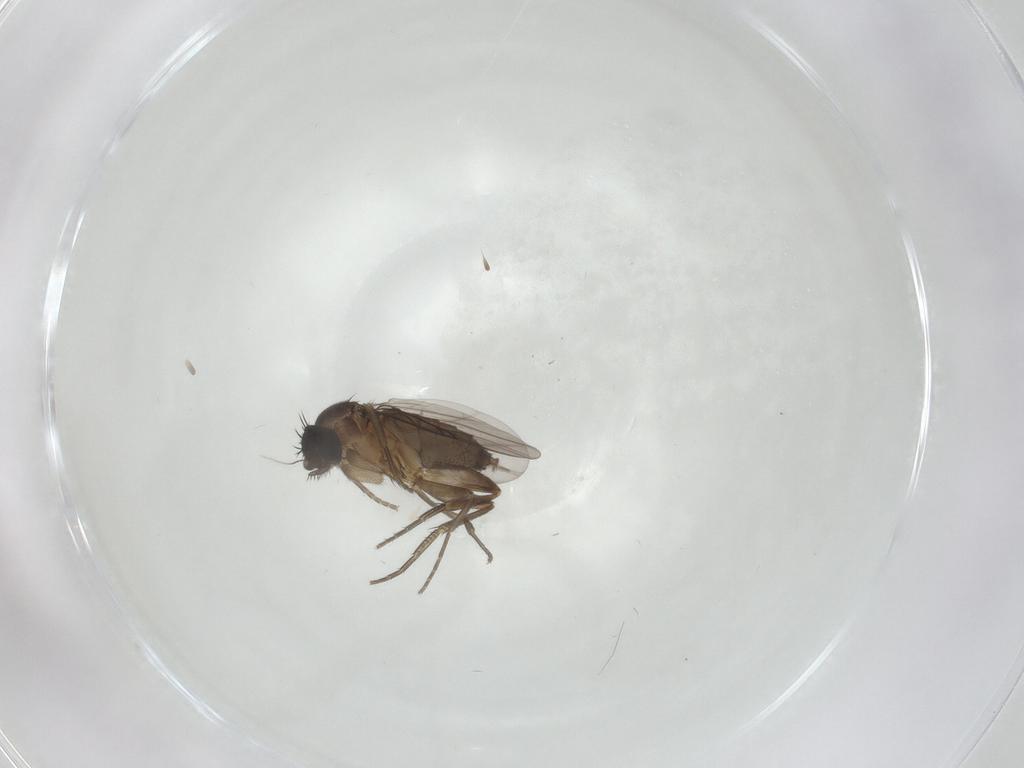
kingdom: Animalia
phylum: Arthropoda
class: Insecta
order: Diptera
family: Phoridae
